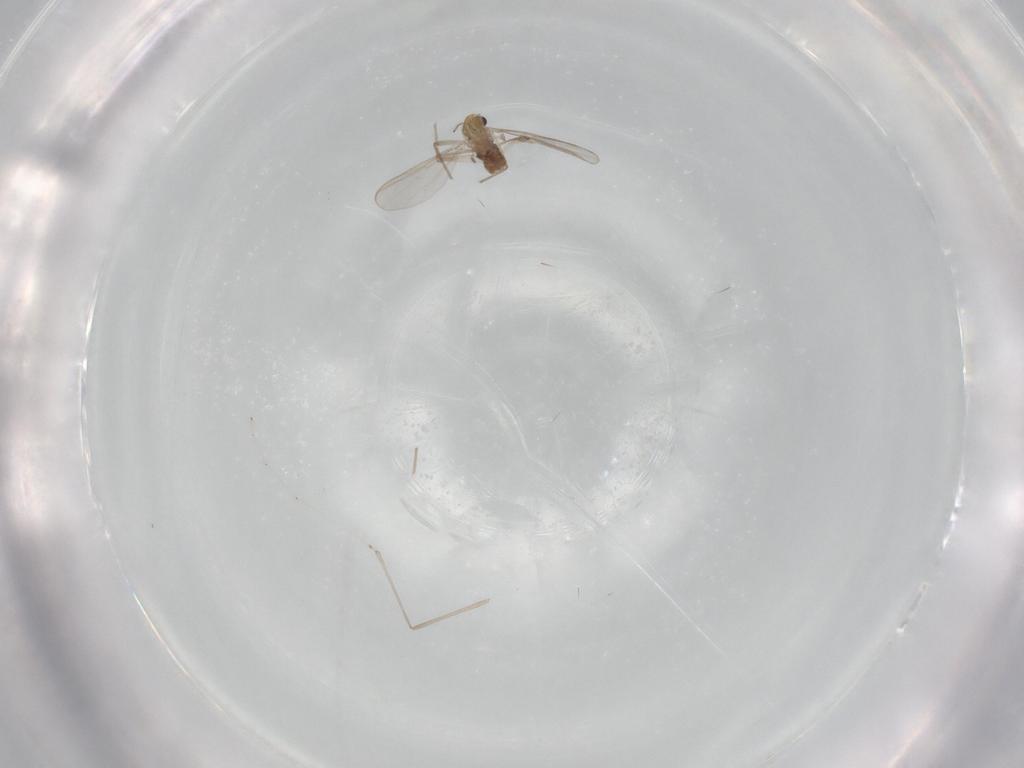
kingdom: Animalia
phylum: Arthropoda
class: Insecta
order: Diptera
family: Chironomidae
